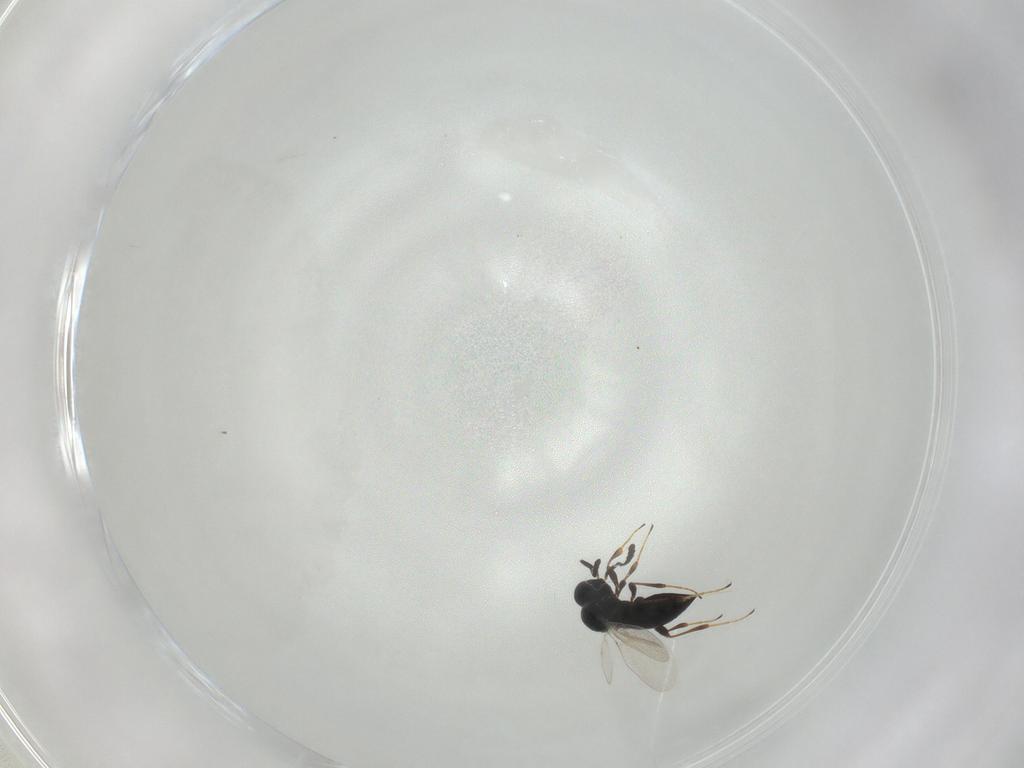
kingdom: Animalia
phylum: Arthropoda
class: Insecta
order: Hymenoptera
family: Platygastridae
